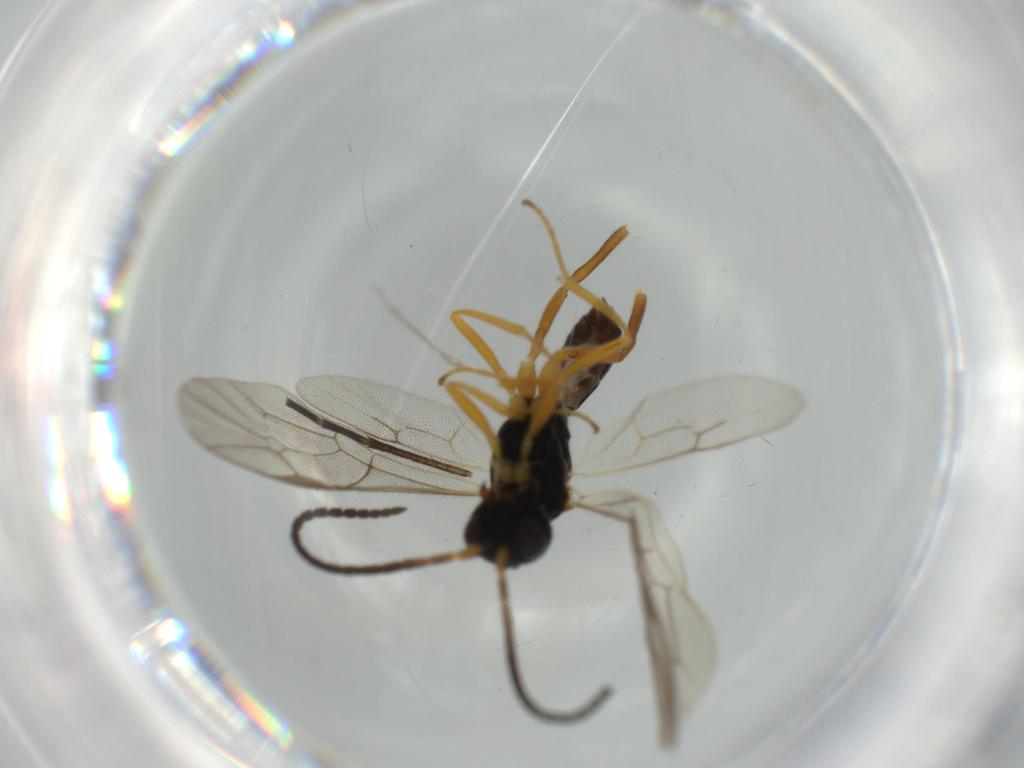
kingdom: Animalia
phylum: Arthropoda
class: Insecta
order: Hymenoptera
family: Ichneumonidae
